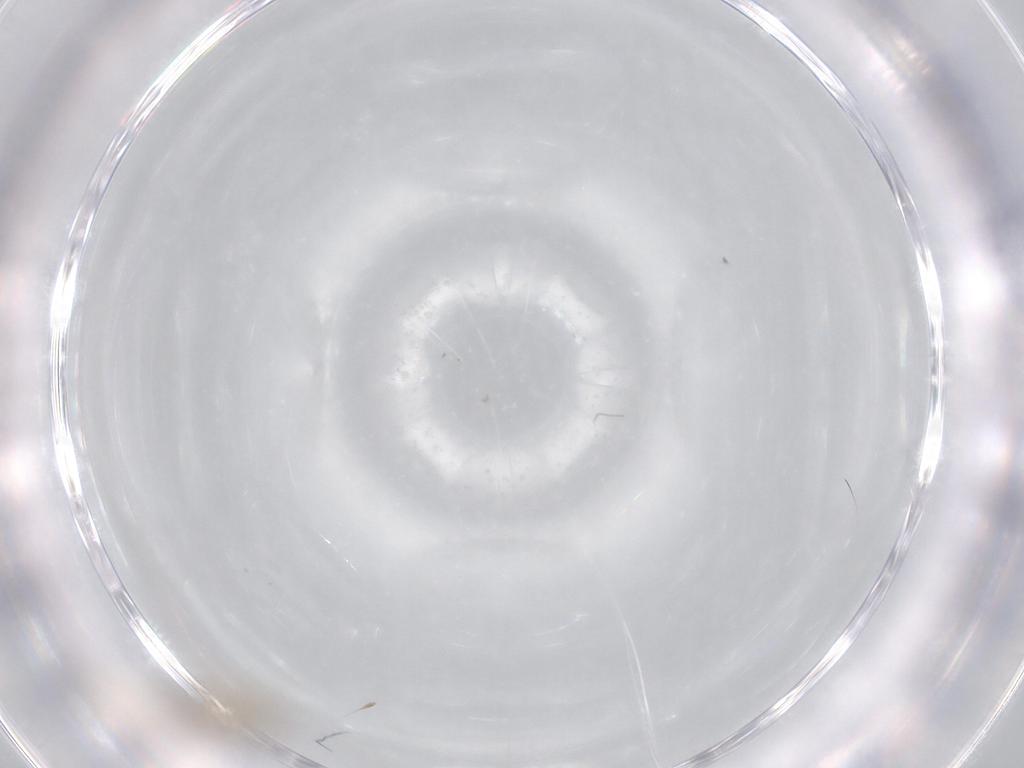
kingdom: Animalia
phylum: Arthropoda
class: Insecta
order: Diptera
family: Cecidomyiidae
